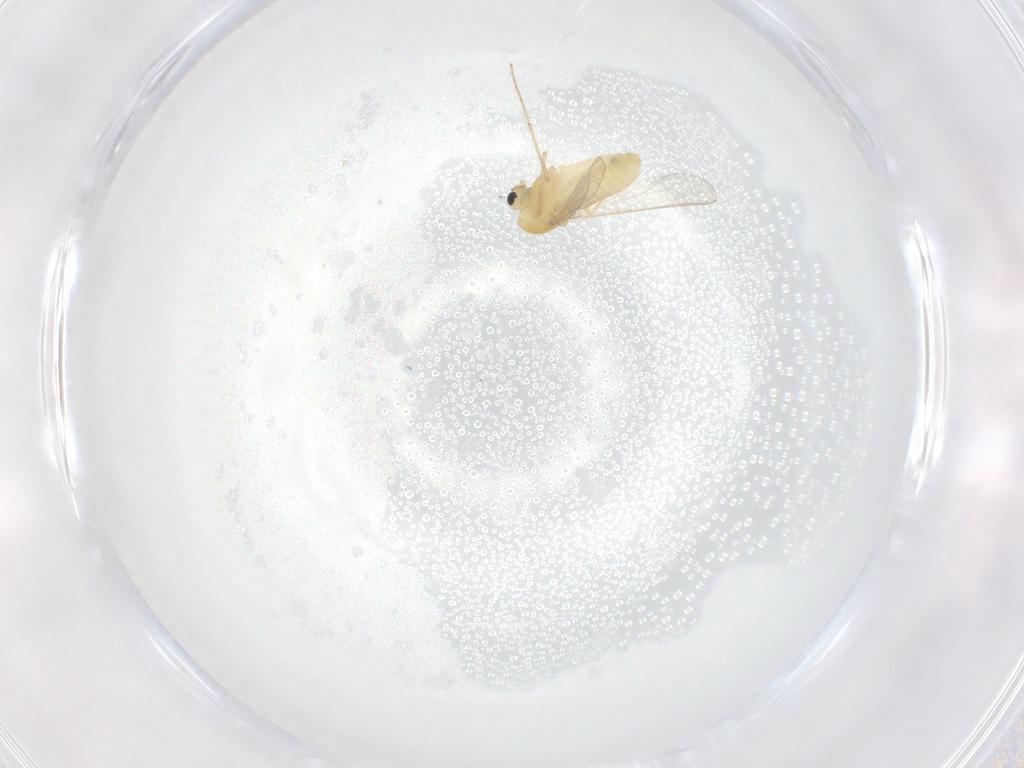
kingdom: Animalia
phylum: Arthropoda
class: Insecta
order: Diptera
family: Chironomidae
